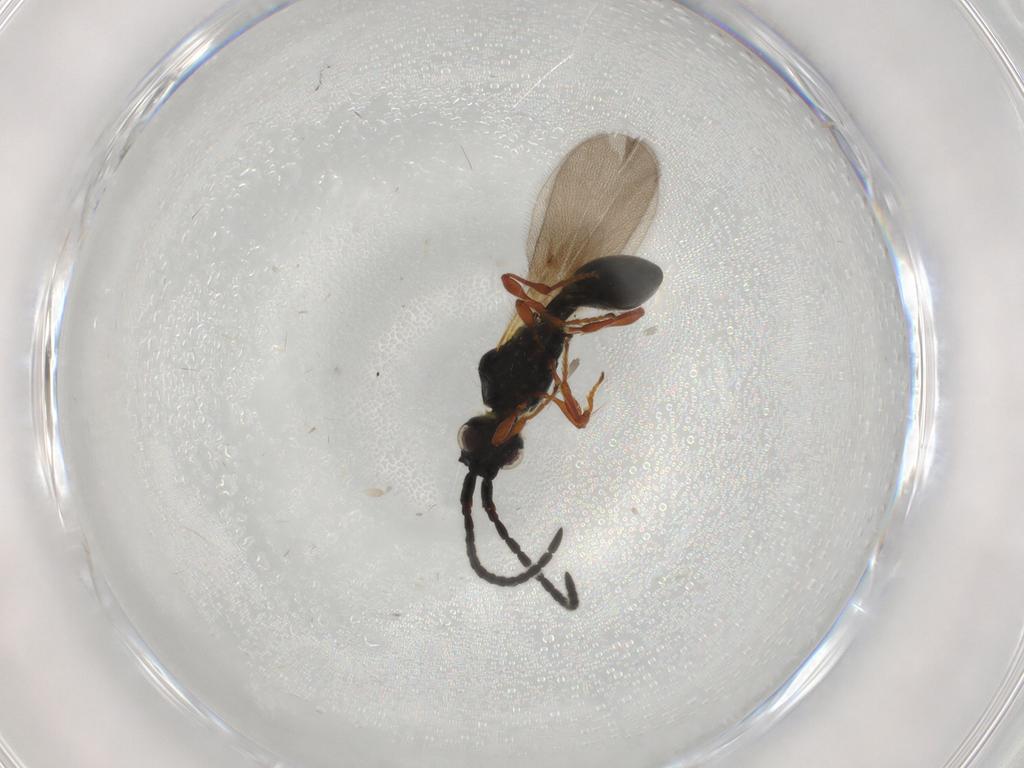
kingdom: Animalia
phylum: Arthropoda
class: Insecta
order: Hymenoptera
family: Diapriidae
